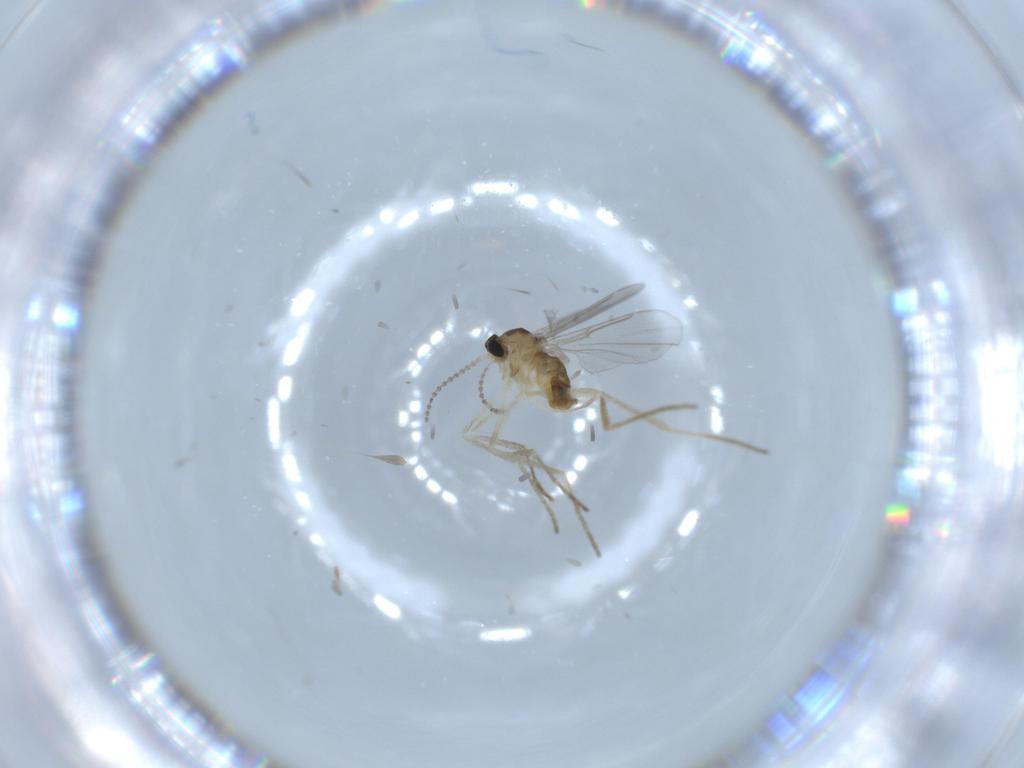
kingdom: Animalia
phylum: Arthropoda
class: Insecta
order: Diptera
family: Cecidomyiidae
